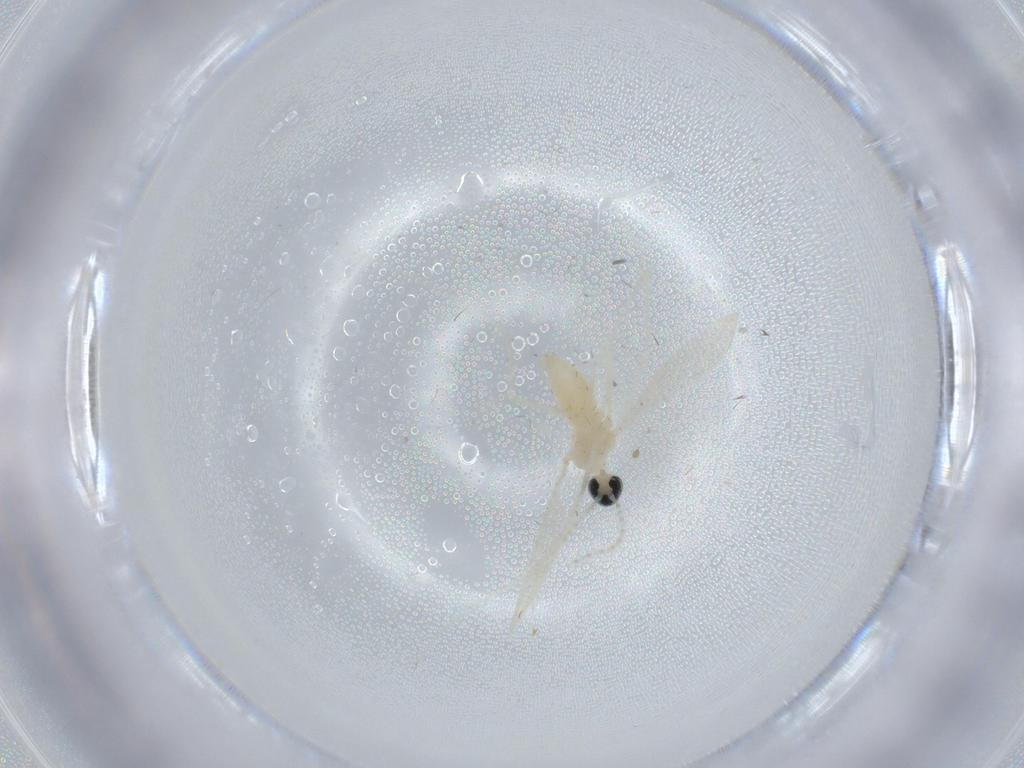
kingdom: Animalia
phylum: Arthropoda
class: Insecta
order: Diptera
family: Cecidomyiidae
